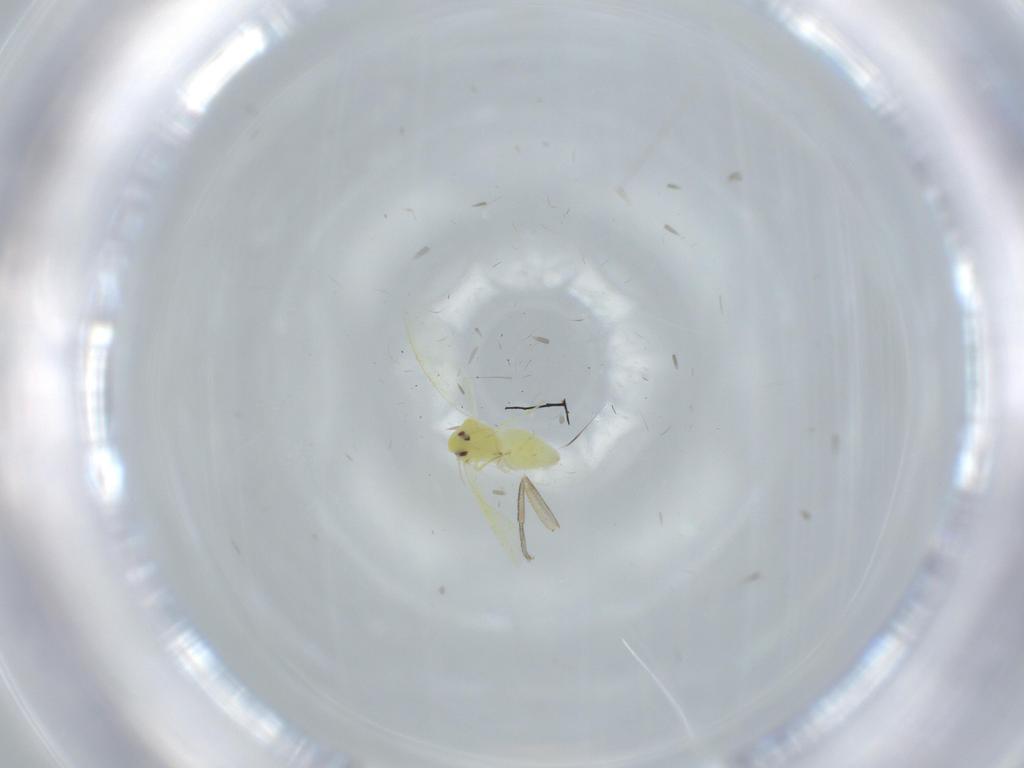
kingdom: Animalia
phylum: Arthropoda
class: Insecta
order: Hemiptera
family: Aleyrodidae
